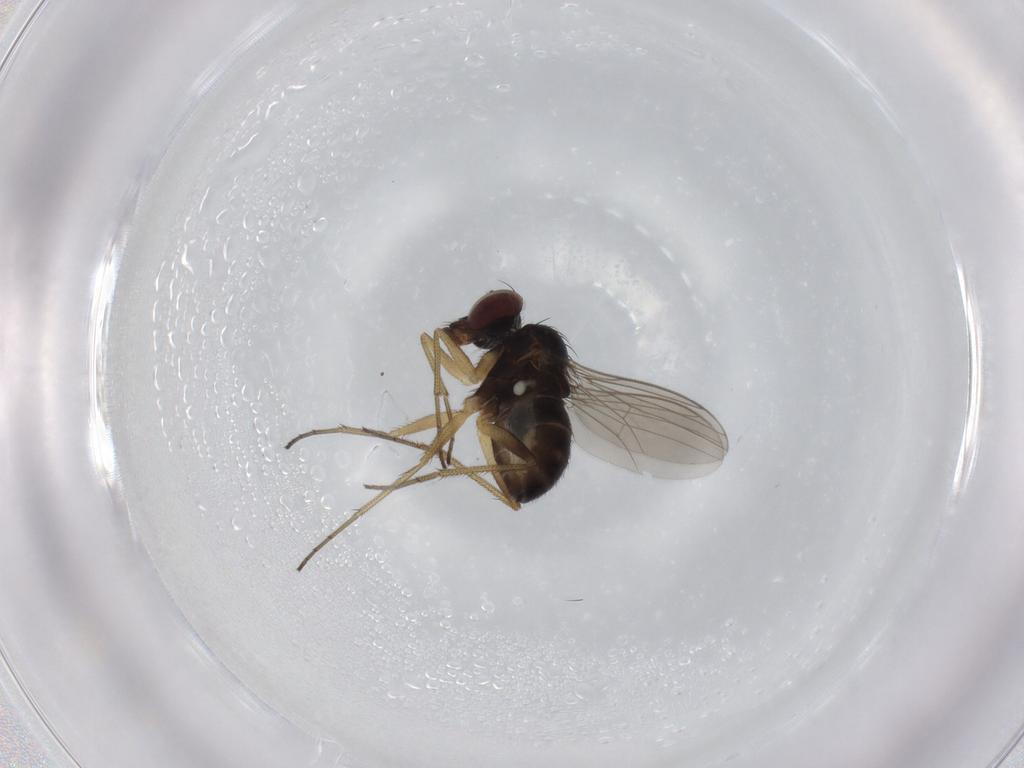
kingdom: Animalia
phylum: Arthropoda
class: Insecta
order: Diptera
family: Dolichopodidae
